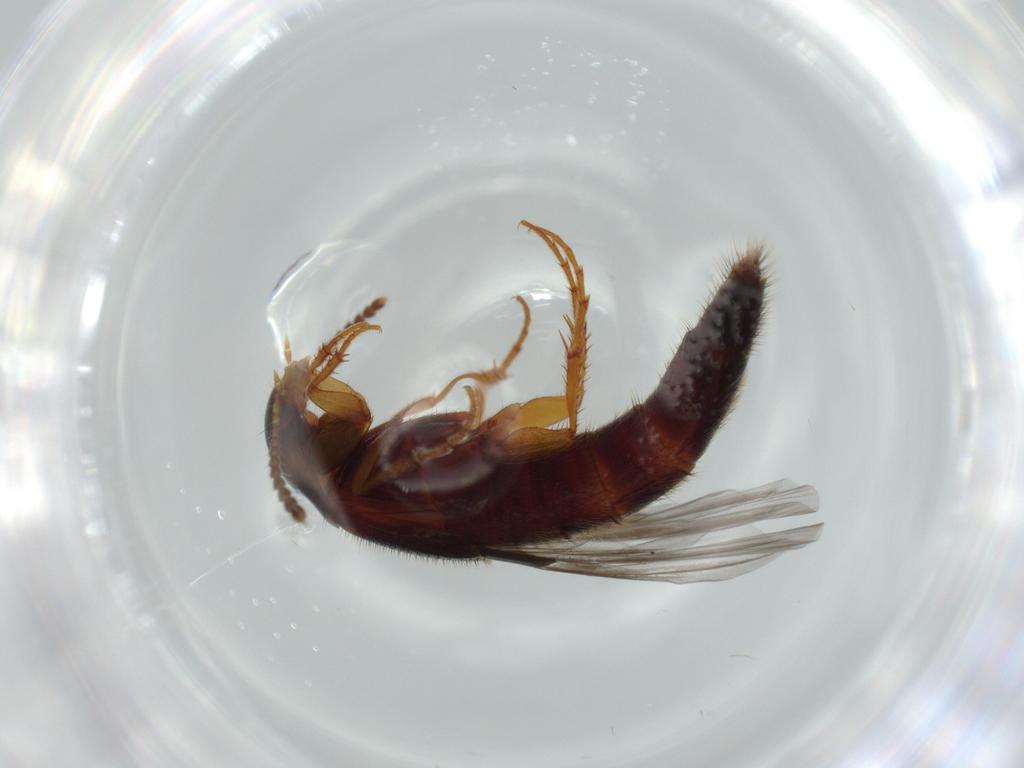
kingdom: Animalia
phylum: Arthropoda
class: Insecta
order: Coleoptera
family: Staphylinidae
